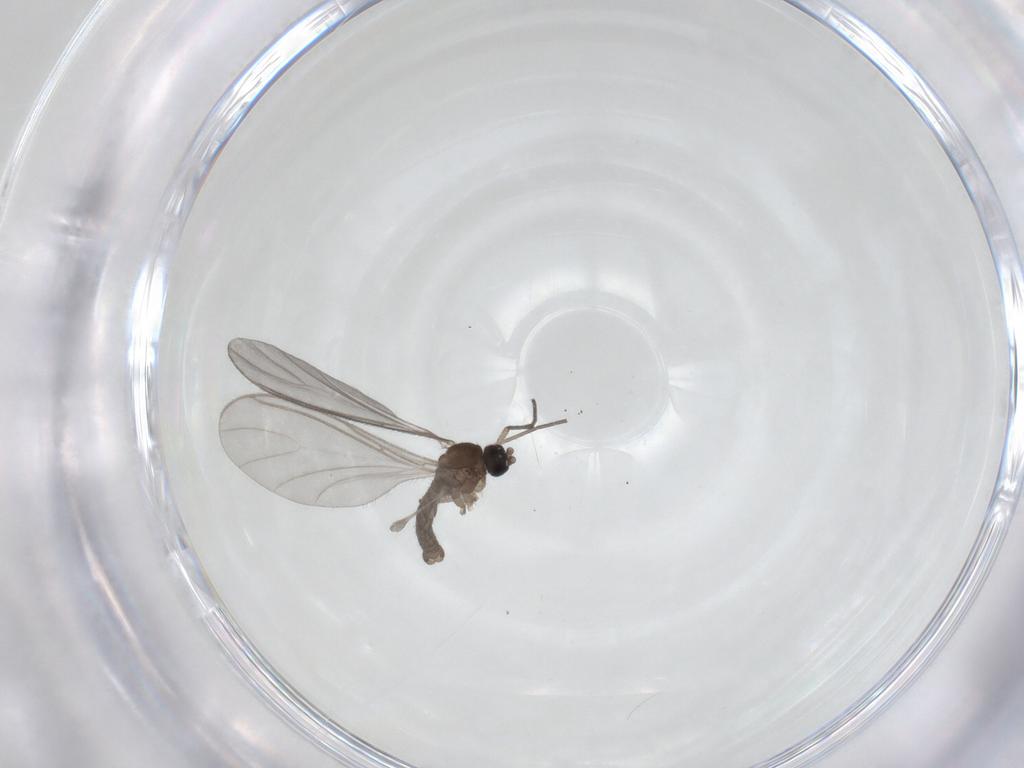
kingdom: Animalia
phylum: Arthropoda
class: Insecta
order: Diptera
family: Sciaridae
